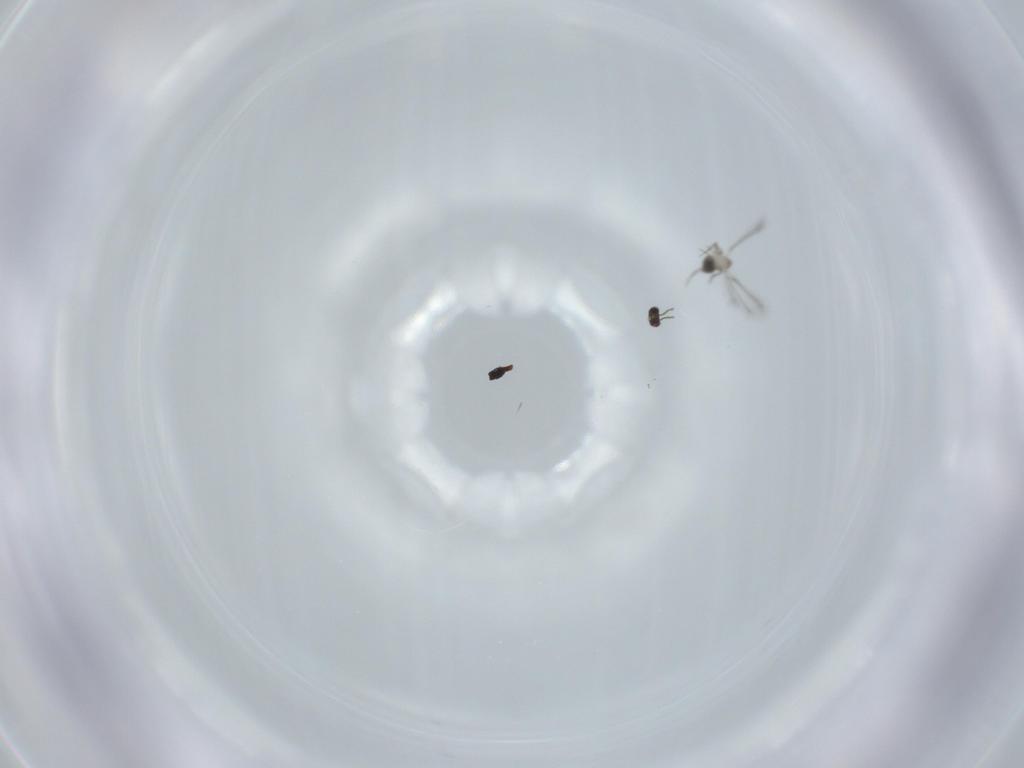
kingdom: Animalia
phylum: Arthropoda
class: Insecta
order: Hymenoptera
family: Mymaridae
